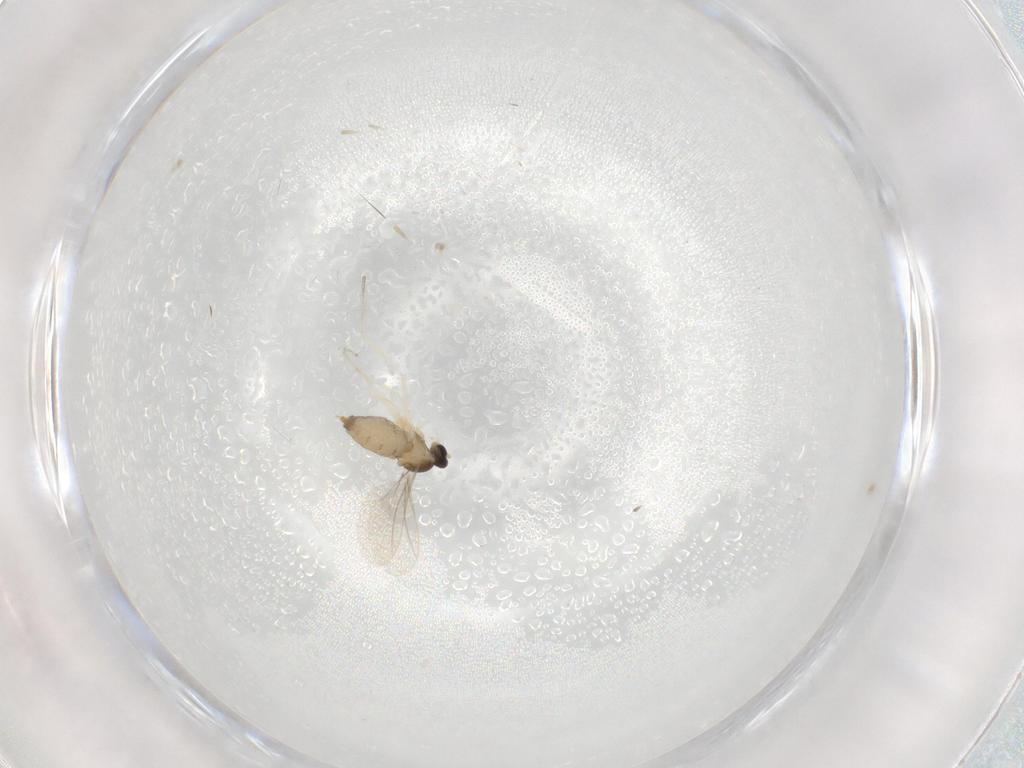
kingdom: Animalia
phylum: Arthropoda
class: Insecta
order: Diptera
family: Cecidomyiidae
